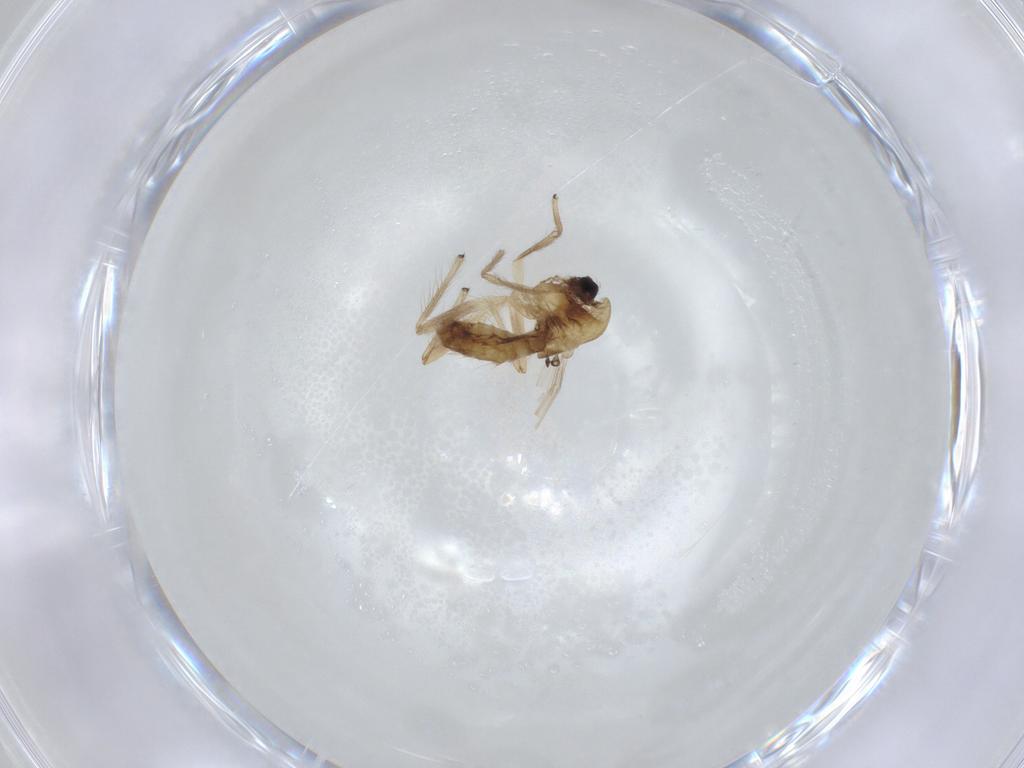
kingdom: Animalia
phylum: Arthropoda
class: Insecta
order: Diptera
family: Chironomidae
